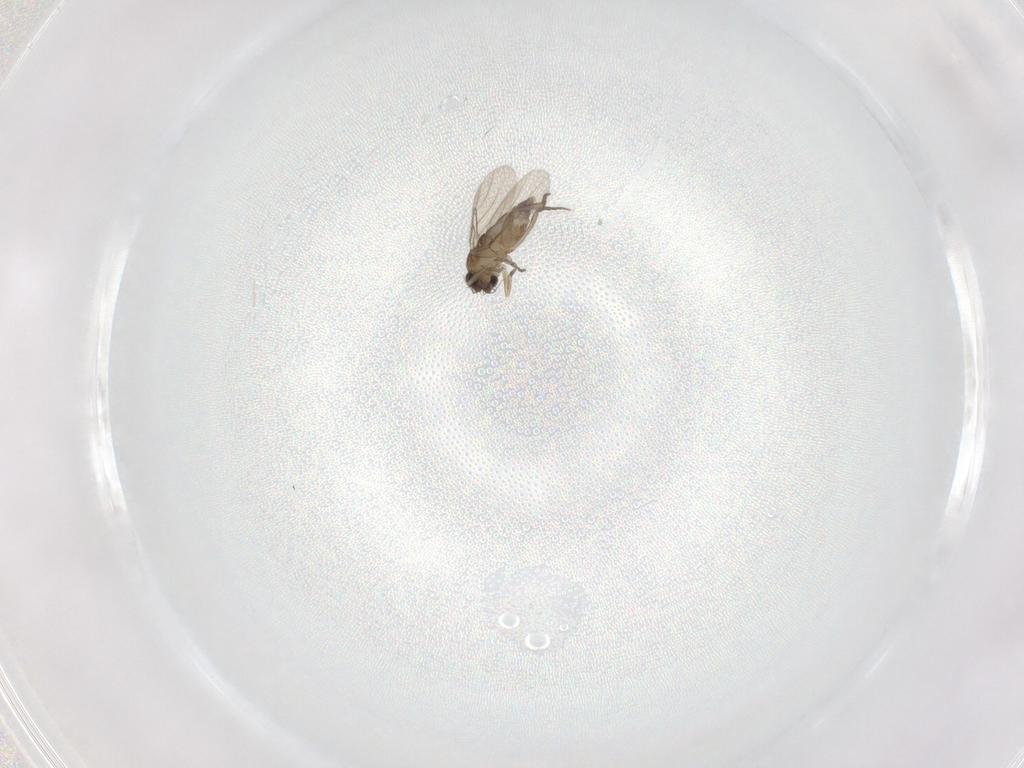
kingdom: Animalia
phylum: Arthropoda
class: Insecta
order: Diptera
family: Phoridae
